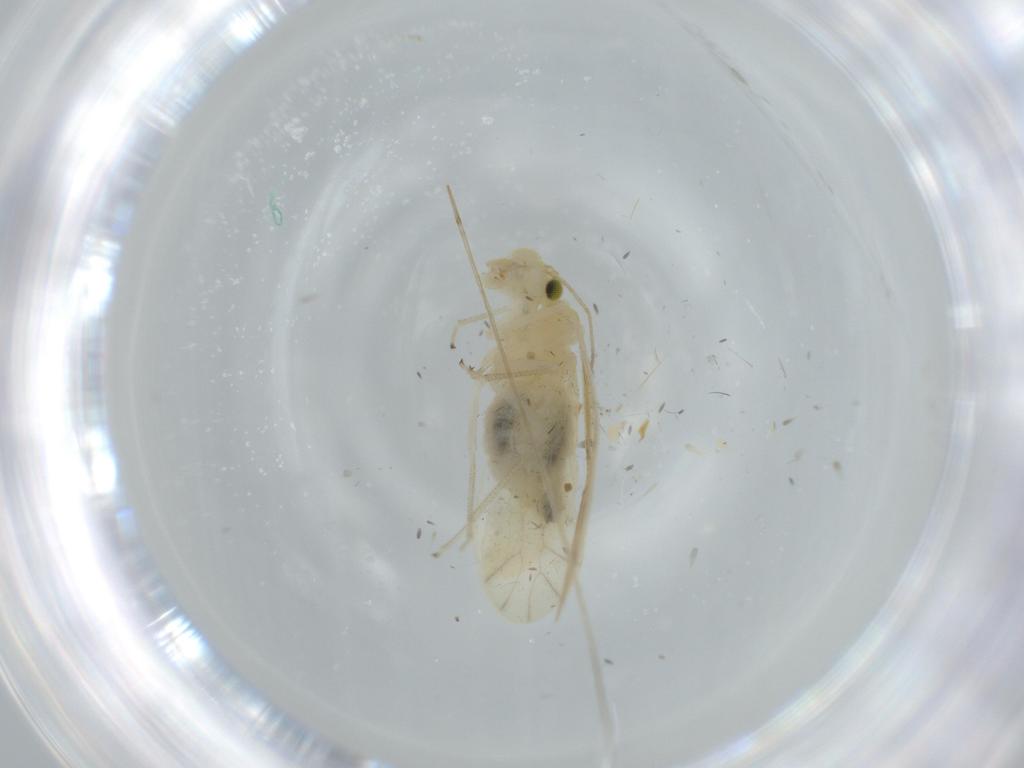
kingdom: Animalia
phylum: Arthropoda
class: Insecta
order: Psocodea
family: Caeciliusidae
